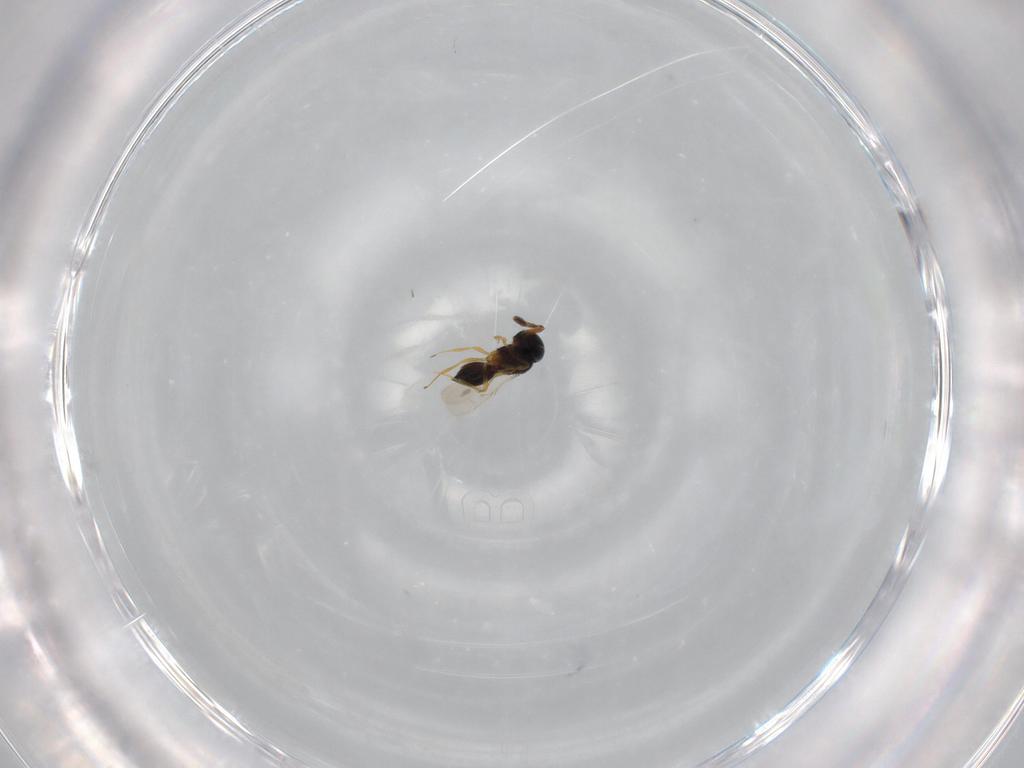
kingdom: Animalia
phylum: Arthropoda
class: Insecta
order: Hymenoptera
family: Scelionidae
